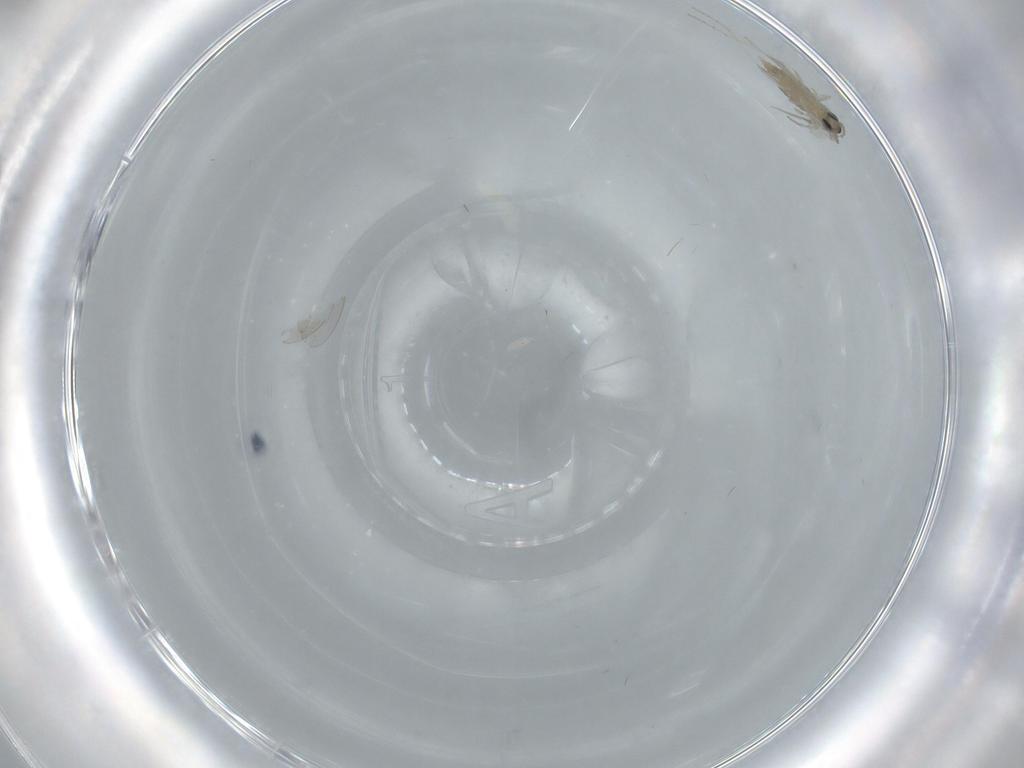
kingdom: Animalia
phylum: Arthropoda
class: Insecta
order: Diptera
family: Cecidomyiidae
